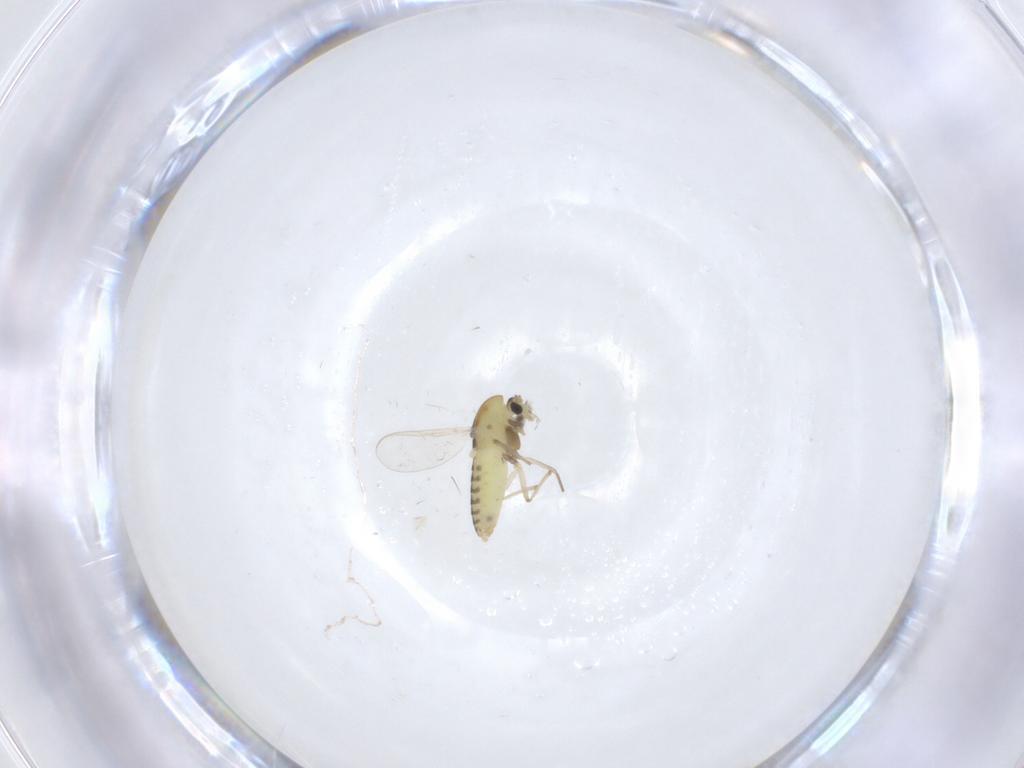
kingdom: Animalia
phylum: Arthropoda
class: Insecta
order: Diptera
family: Chironomidae
